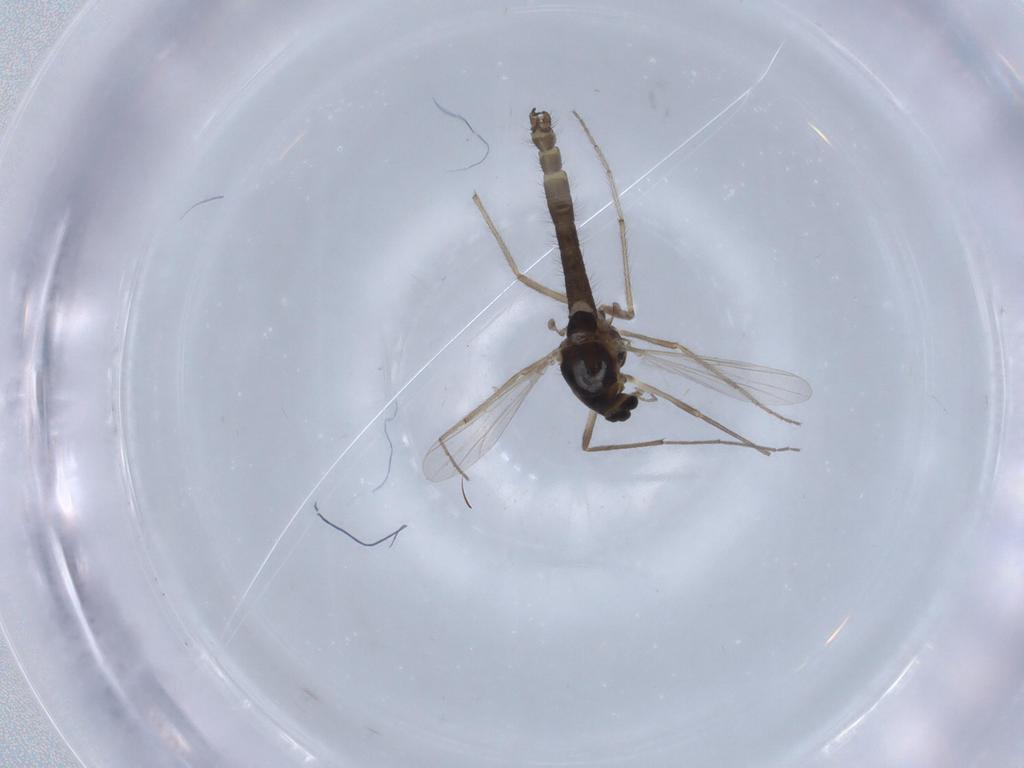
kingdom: Animalia
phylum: Arthropoda
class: Insecta
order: Diptera
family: Chironomidae
